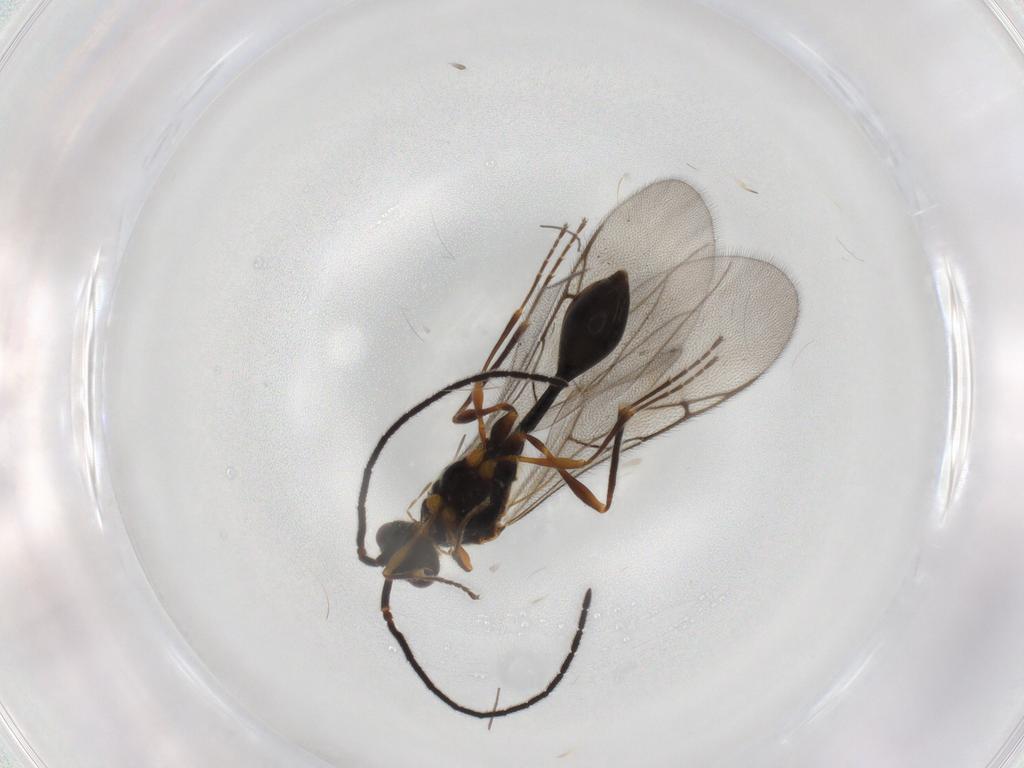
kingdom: Animalia
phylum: Arthropoda
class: Insecta
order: Hymenoptera
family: Diapriidae
